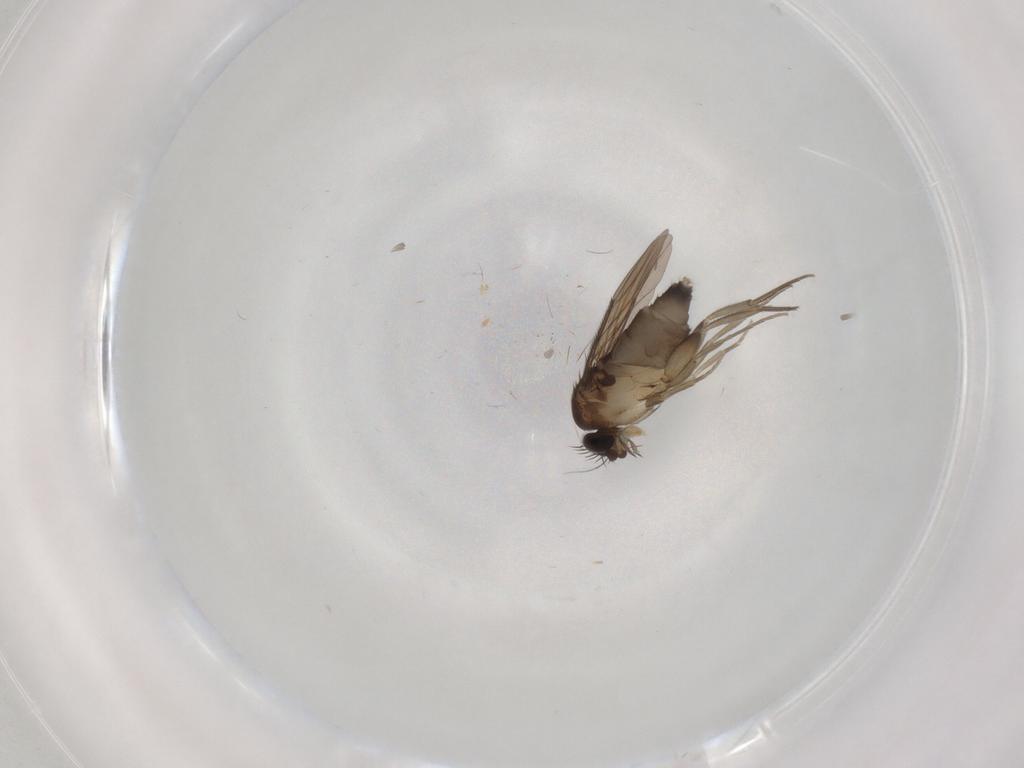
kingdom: Animalia
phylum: Arthropoda
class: Insecta
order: Diptera
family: Phoridae
